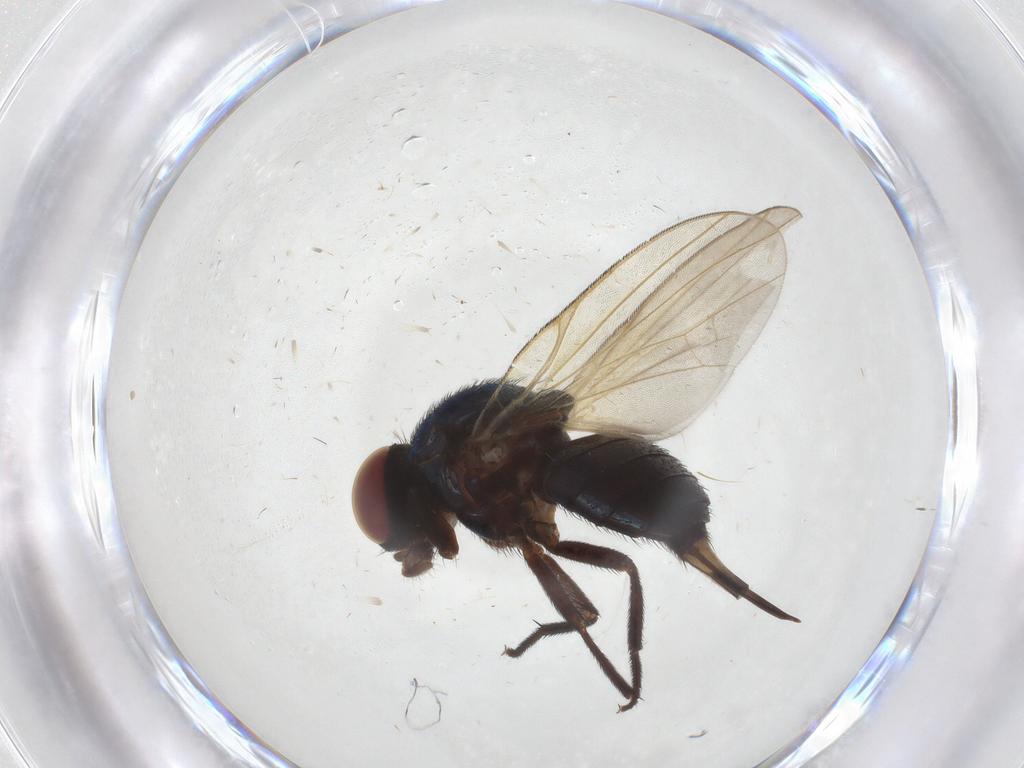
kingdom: Animalia
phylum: Arthropoda
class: Insecta
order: Diptera
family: Lonchaeidae
